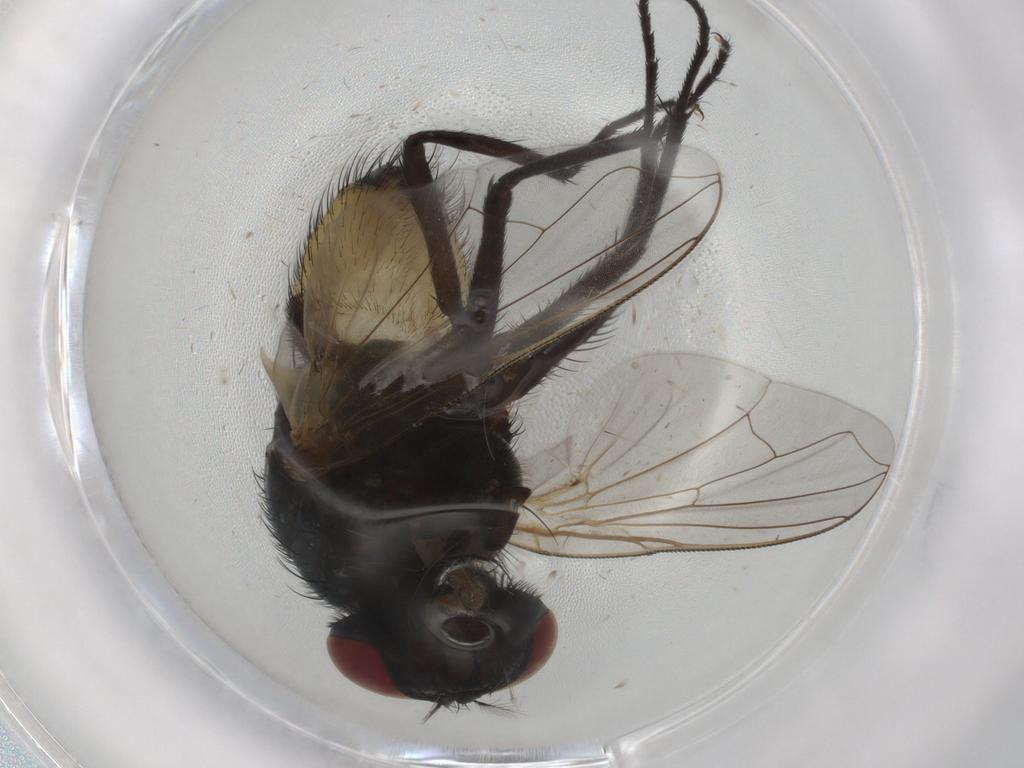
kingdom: Animalia
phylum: Arthropoda
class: Insecta
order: Diptera
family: Muscidae
